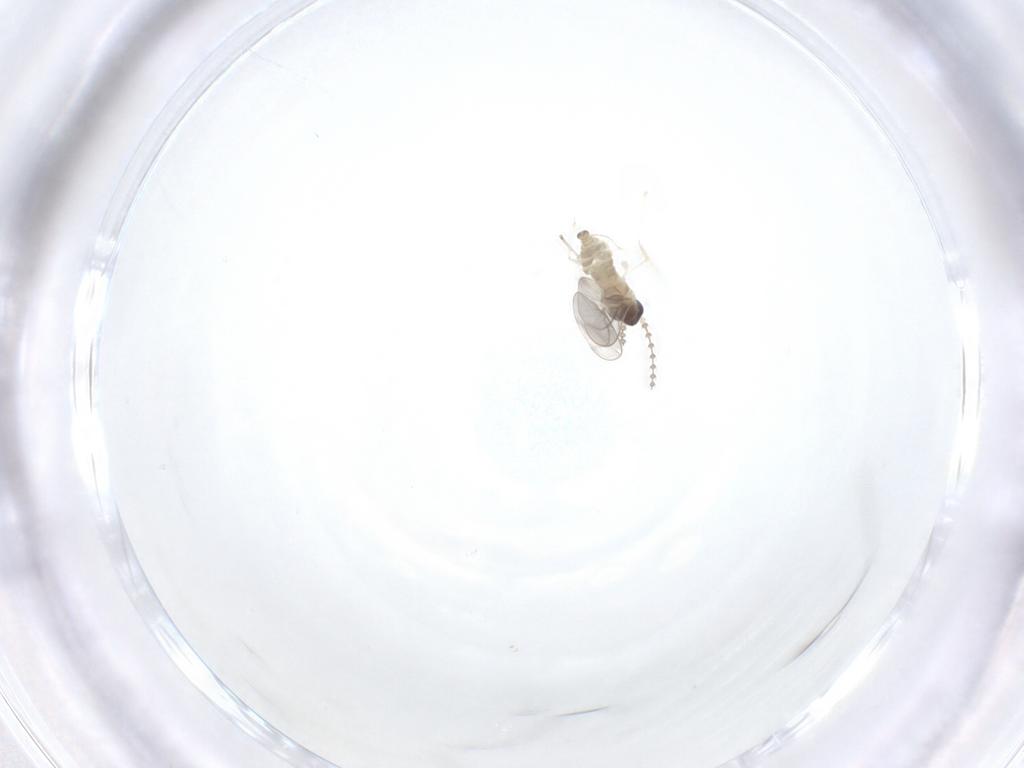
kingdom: Animalia
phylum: Arthropoda
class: Insecta
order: Diptera
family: Cecidomyiidae
